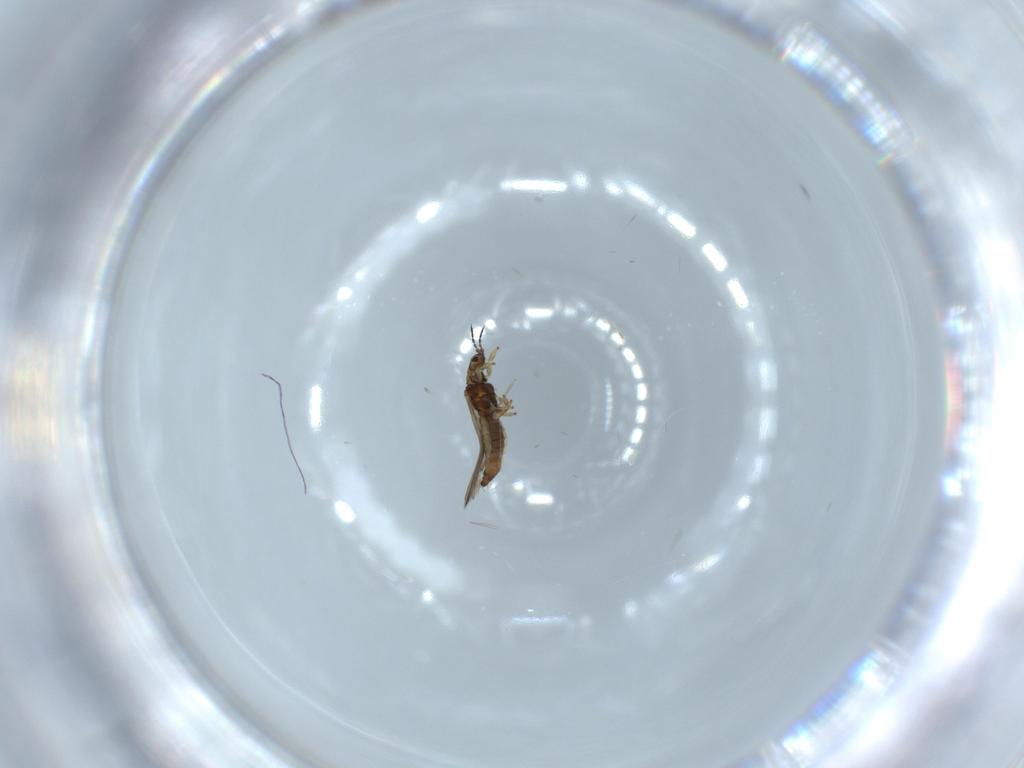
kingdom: Animalia
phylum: Arthropoda
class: Insecta
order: Thysanoptera
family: Thripidae
